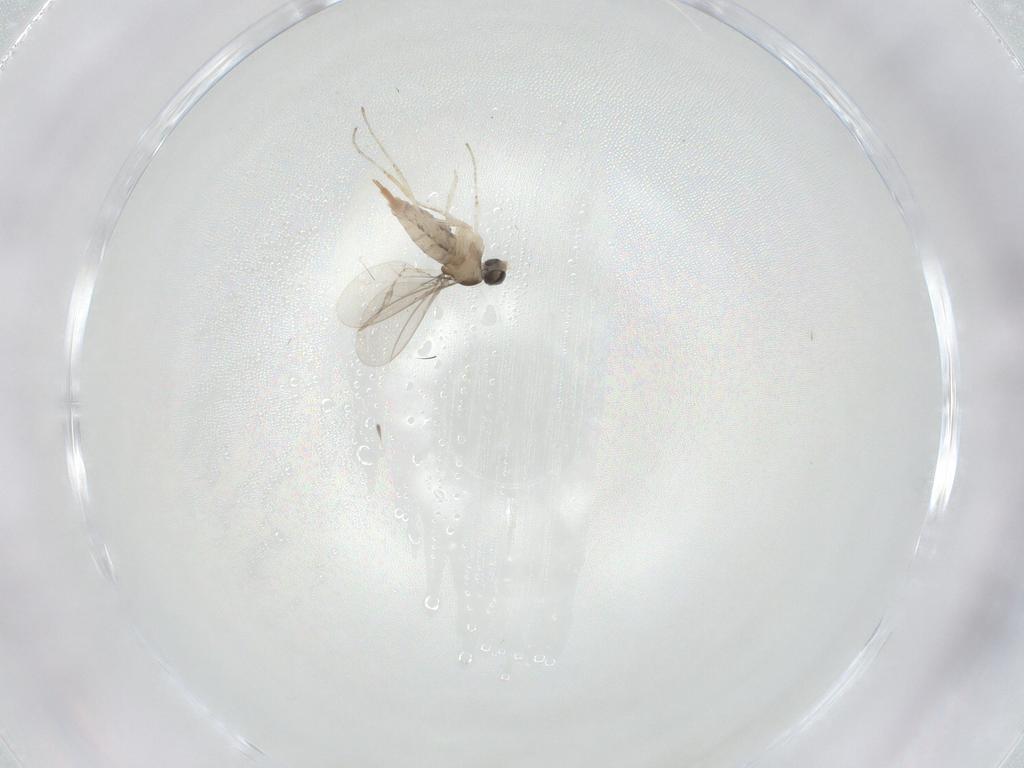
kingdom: Animalia
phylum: Arthropoda
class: Insecta
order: Diptera
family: Cecidomyiidae
